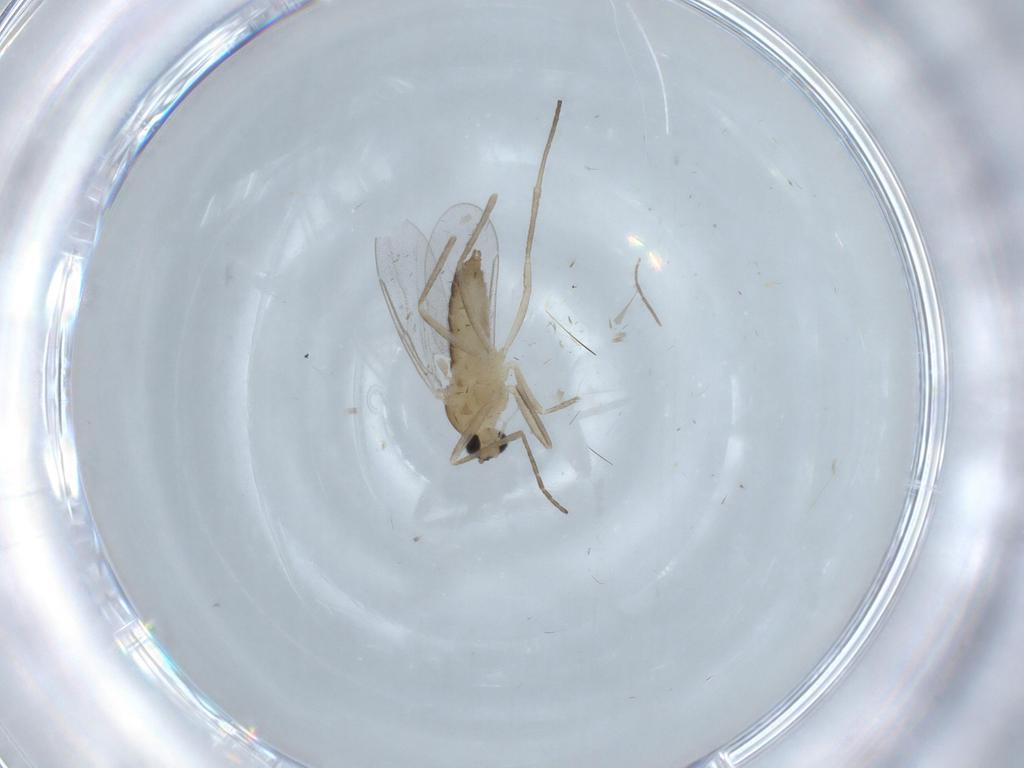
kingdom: Animalia
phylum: Arthropoda
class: Insecta
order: Diptera
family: Cecidomyiidae
